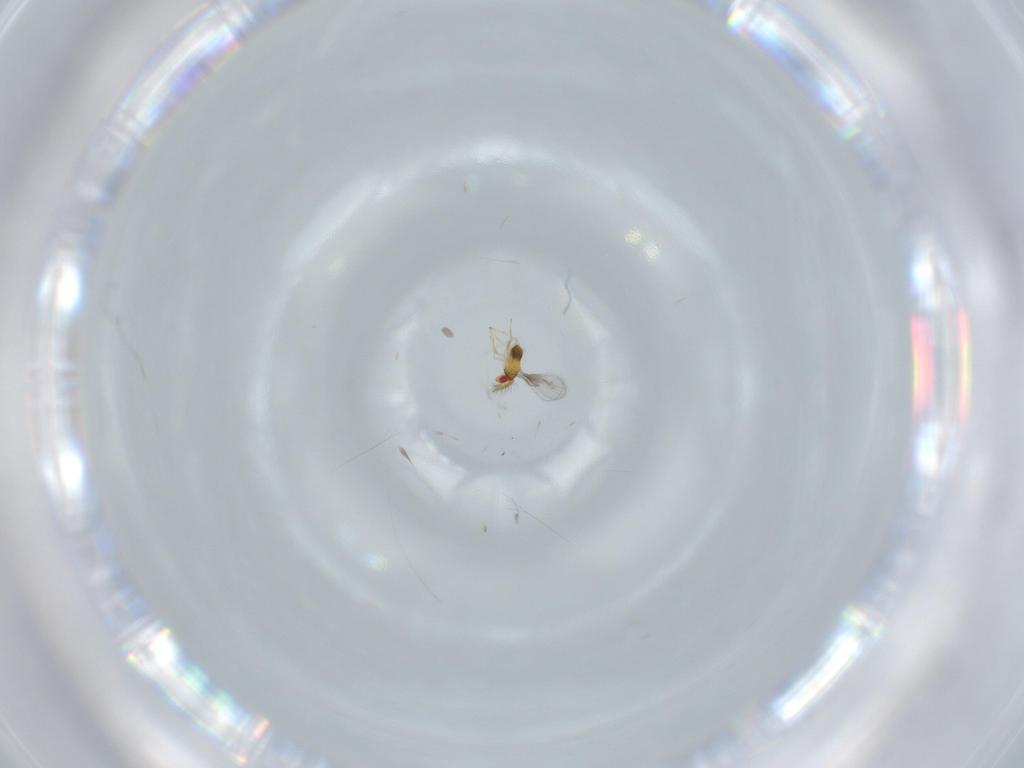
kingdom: Animalia
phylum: Arthropoda
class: Insecta
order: Hymenoptera
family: Trichogrammatidae
